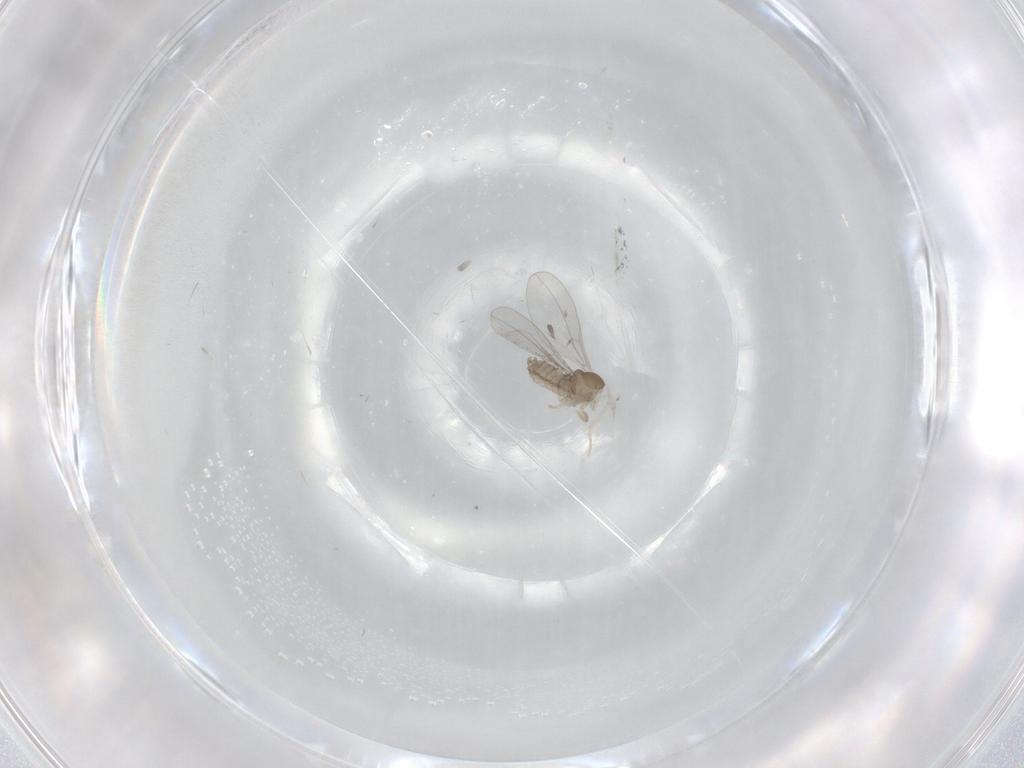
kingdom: Animalia
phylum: Arthropoda
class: Insecta
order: Diptera
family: Cecidomyiidae
